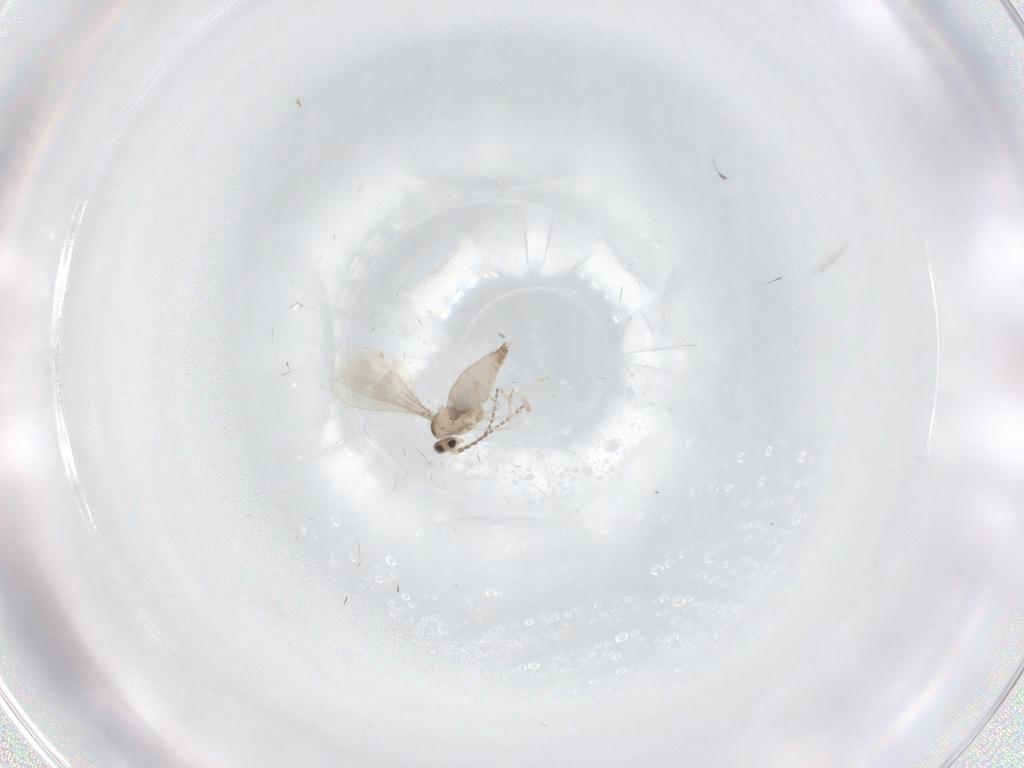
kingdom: Animalia
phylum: Arthropoda
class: Insecta
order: Diptera
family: Cecidomyiidae
